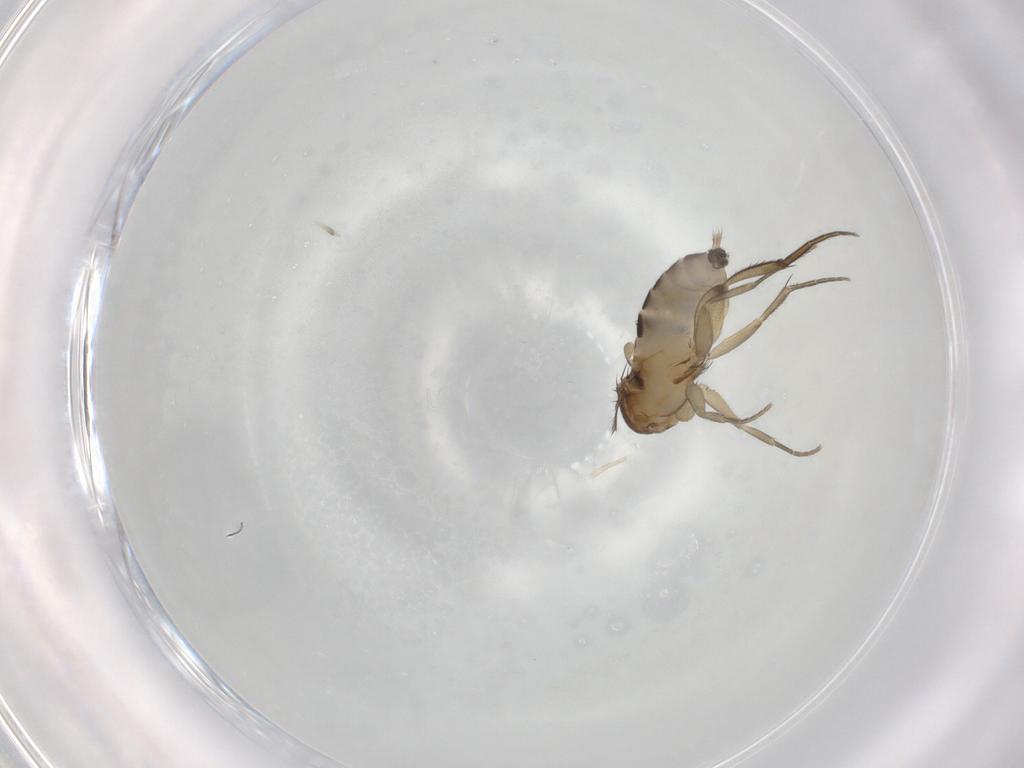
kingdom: Animalia
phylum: Arthropoda
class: Insecta
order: Diptera
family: Phoridae
